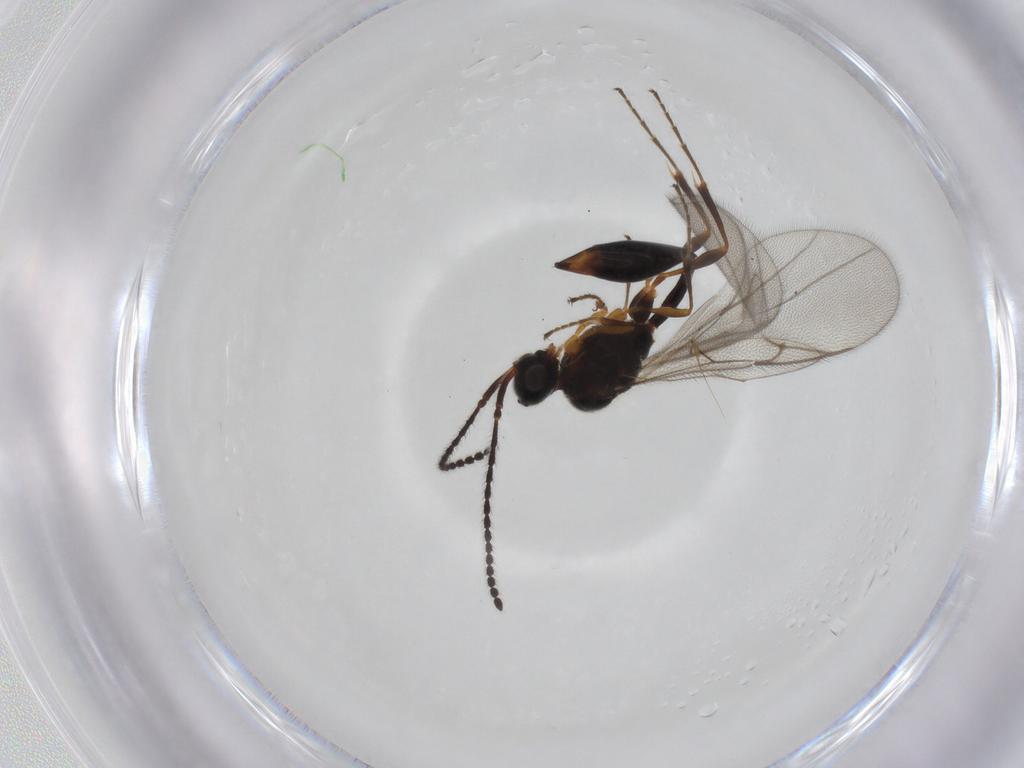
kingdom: Animalia
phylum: Arthropoda
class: Insecta
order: Hymenoptera
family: Diapriidae
